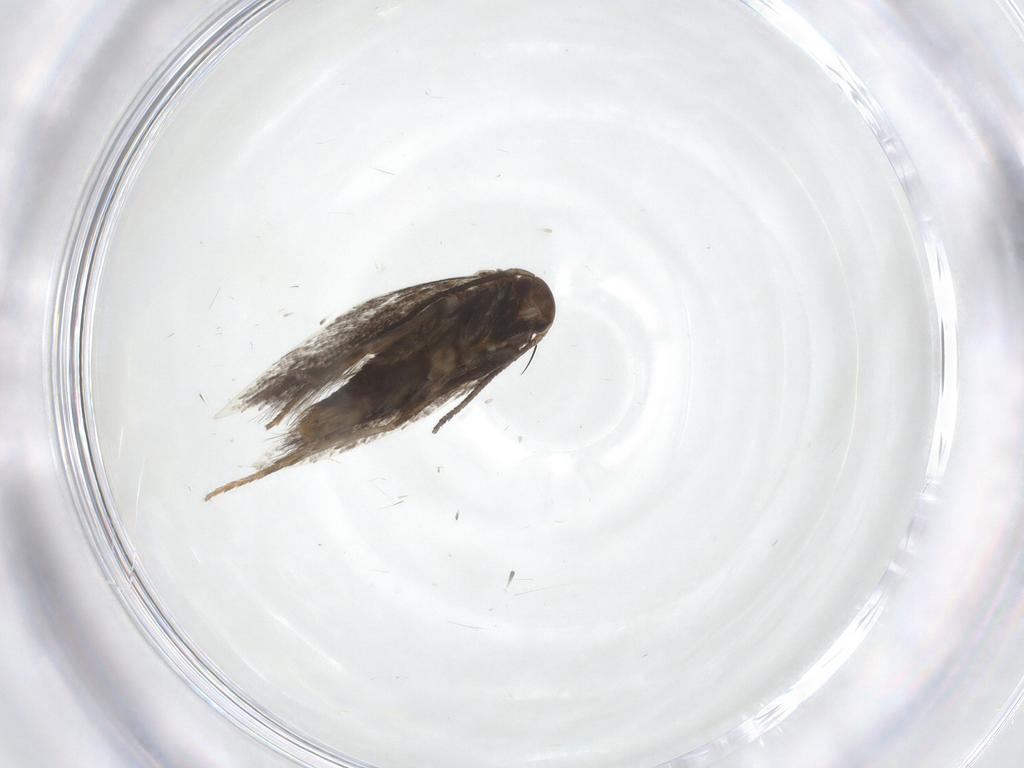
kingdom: Animalia
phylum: Arthropoda
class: Insecta
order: Lepidoptera
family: Elachistidae
